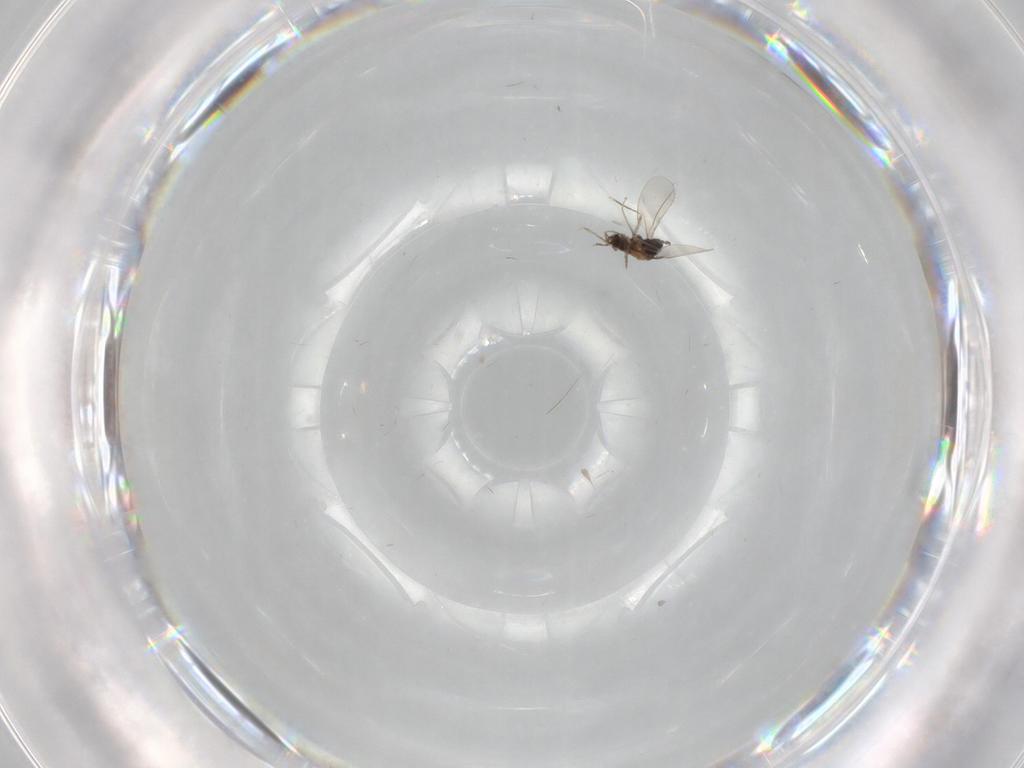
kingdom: Animalia
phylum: Arthropoda
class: Insecta
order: Diptera
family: Cecidomyiidae
